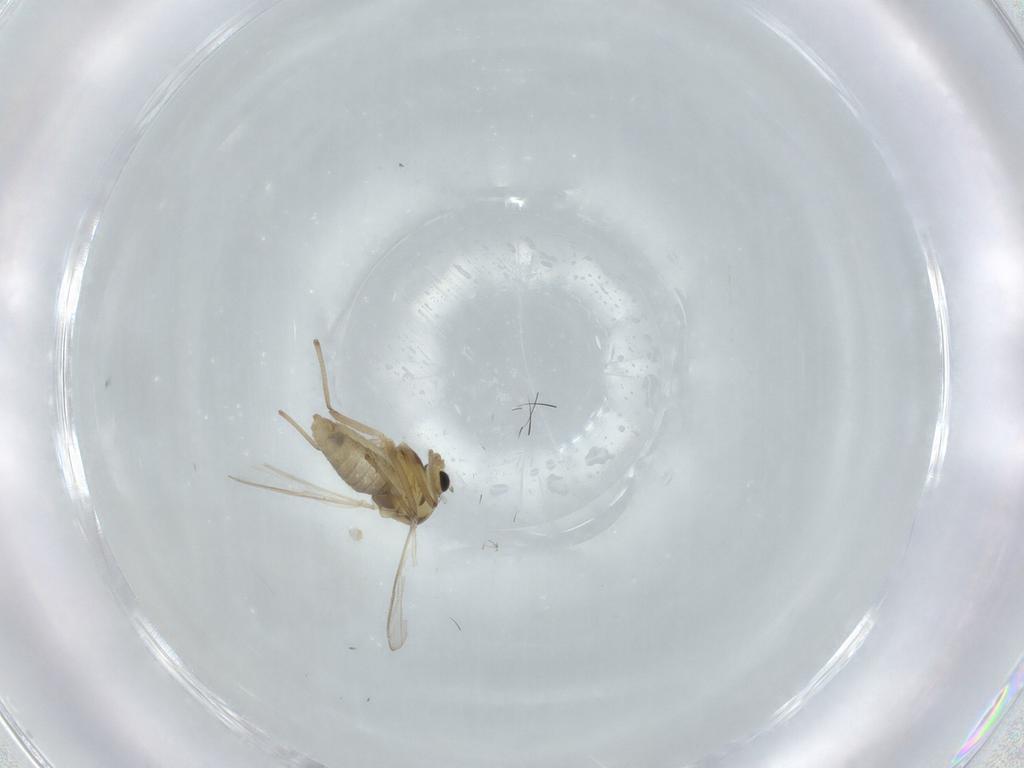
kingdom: Animalia
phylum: Arthropoda
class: Insecta
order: Diptera
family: Chironomidae
